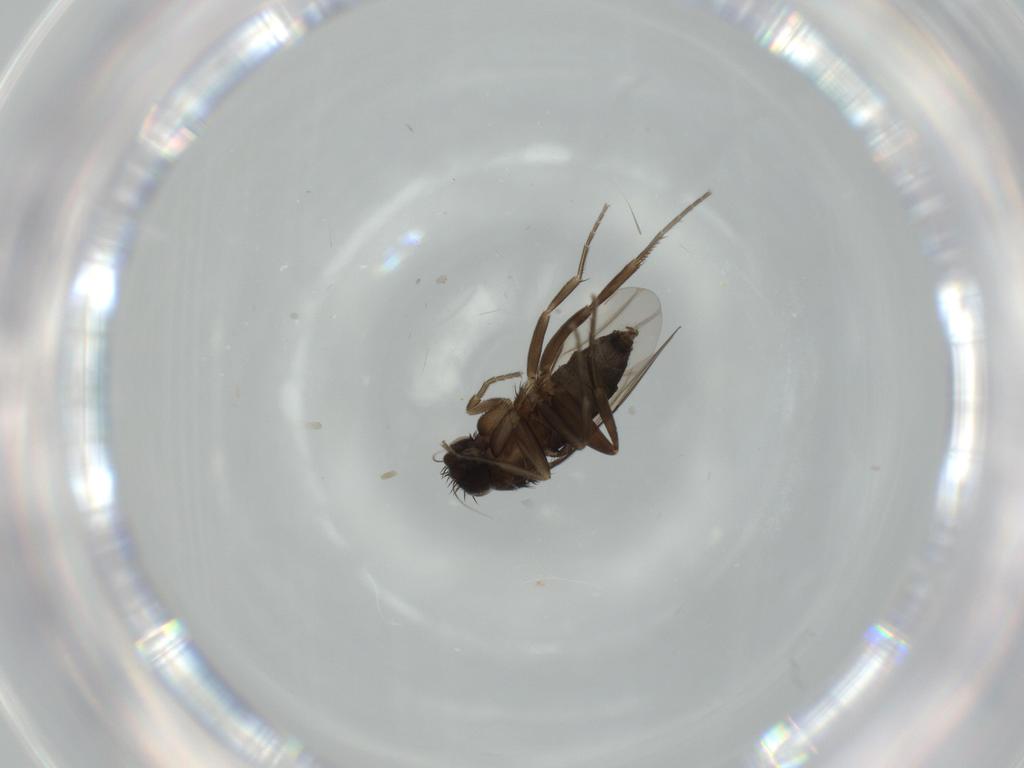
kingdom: Animalia
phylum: Arthropoda
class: Insecta
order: Diptera
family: Phoridae
